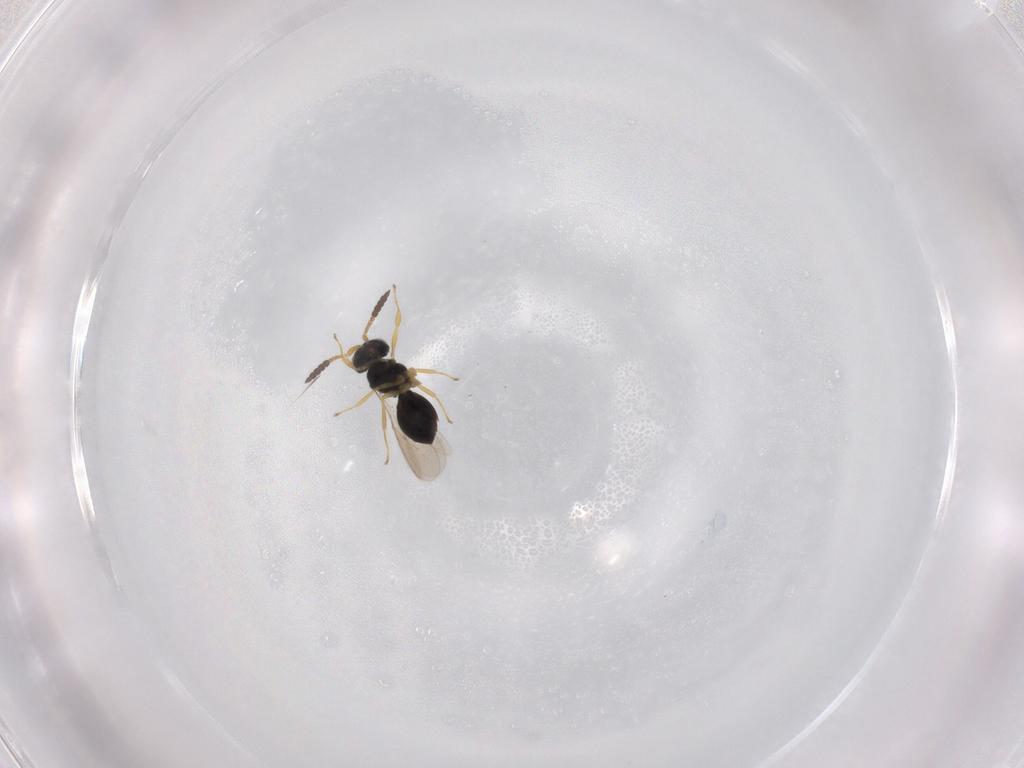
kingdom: Animalia
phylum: Arthropoda
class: Insecta
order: Hymenoptera
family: Scelionidae
